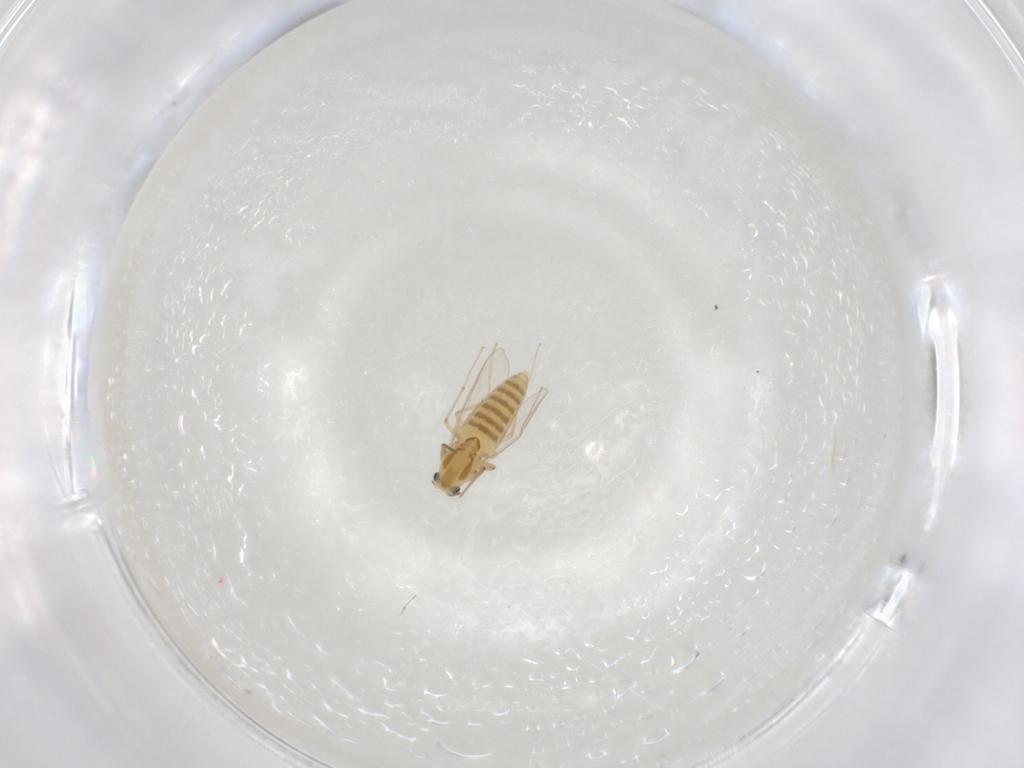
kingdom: Animalia
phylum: Arthropoda
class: Insecta
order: Diptera
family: Chironomidae
